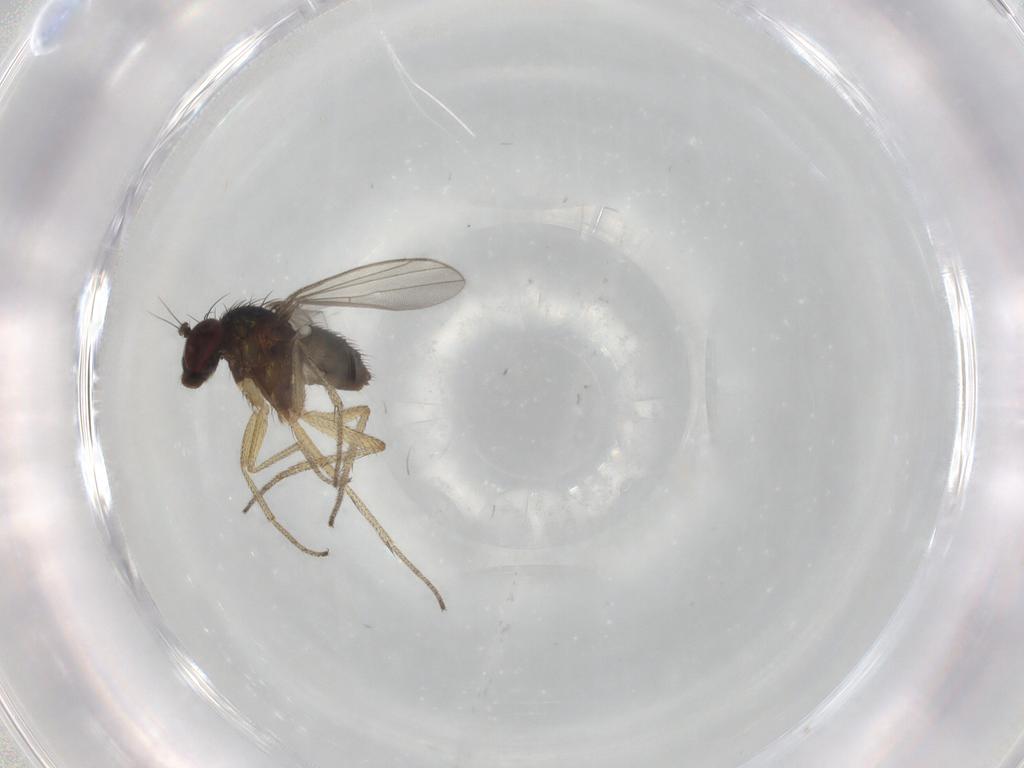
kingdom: Animalia
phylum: Arthropoda
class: Insecta
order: Diptera
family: Dolichopodidae
